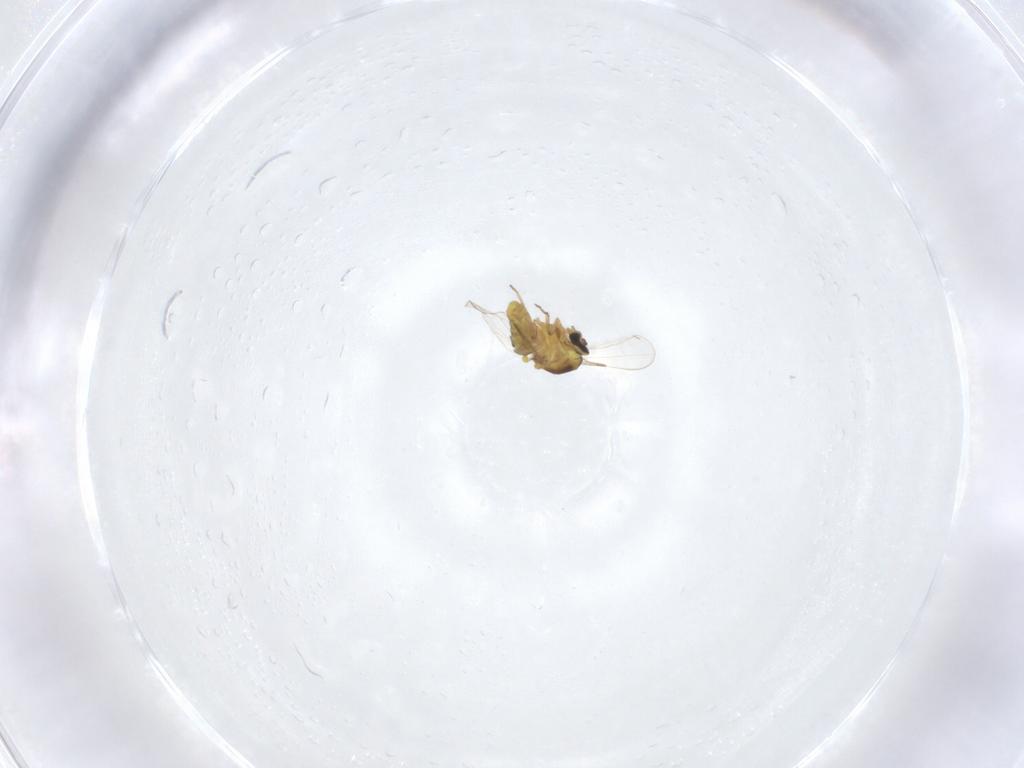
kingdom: Animalia
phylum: Arthropoda
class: Insecta
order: Diptera
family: Ceratopogonidae
